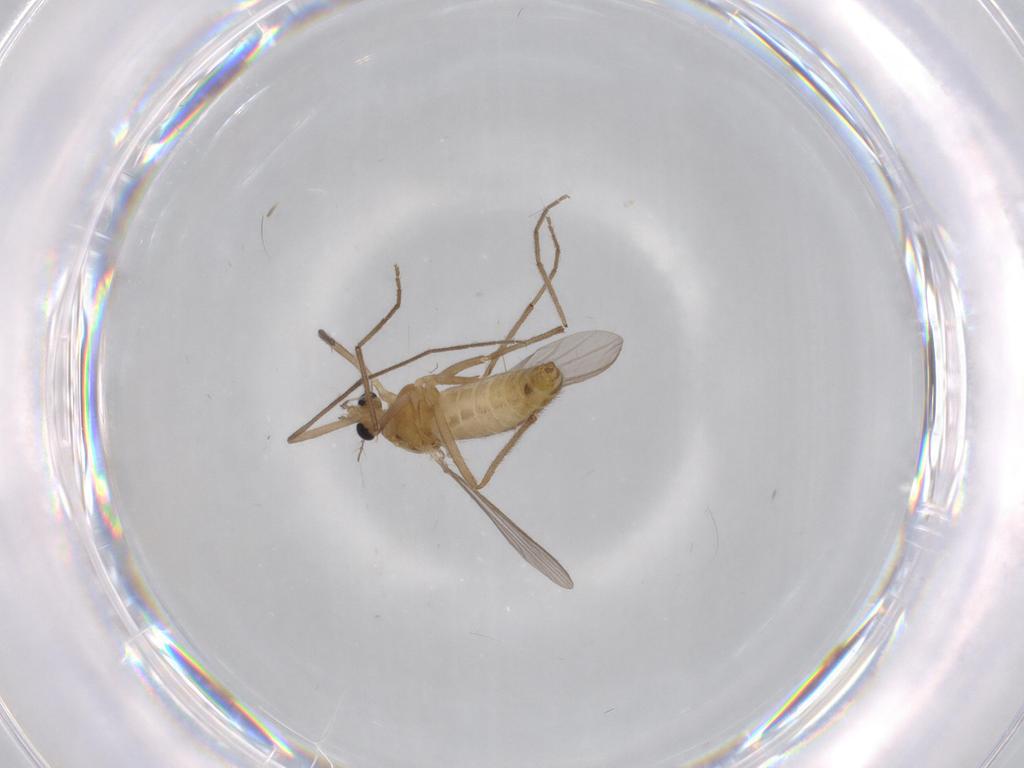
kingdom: Animalia
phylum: Arthropoda
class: Insecta
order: Diptera
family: Chironomidae
